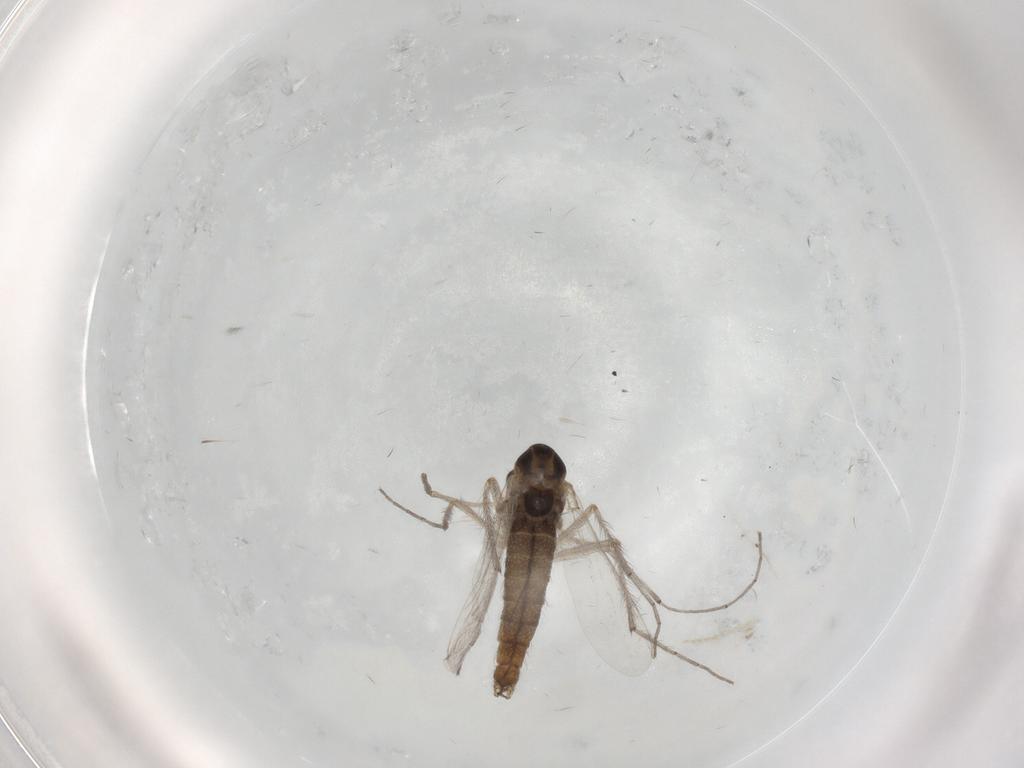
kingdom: Animalia
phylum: Arthropoda
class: Insecta
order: Diptera
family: Scatopsidae
